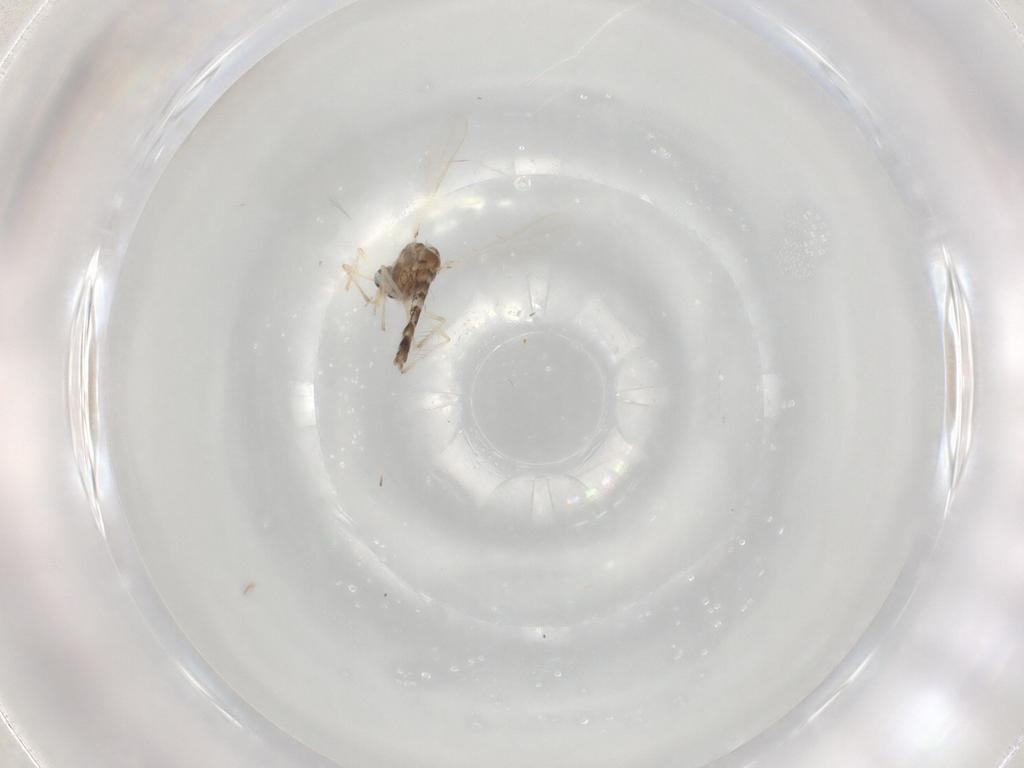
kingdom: Animalia
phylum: Arthropoda
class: Insecta
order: Diptera
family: Chironomidae
